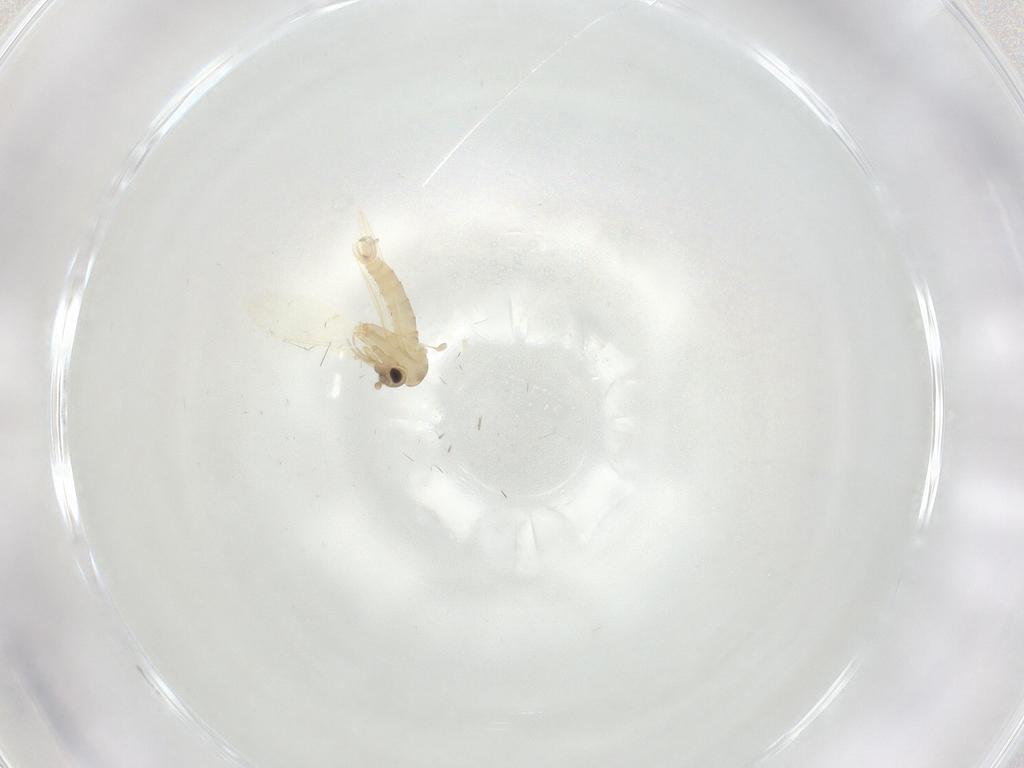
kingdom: Animalia
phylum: Arthropoda
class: Insecta
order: Diptera
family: Psychodidae
